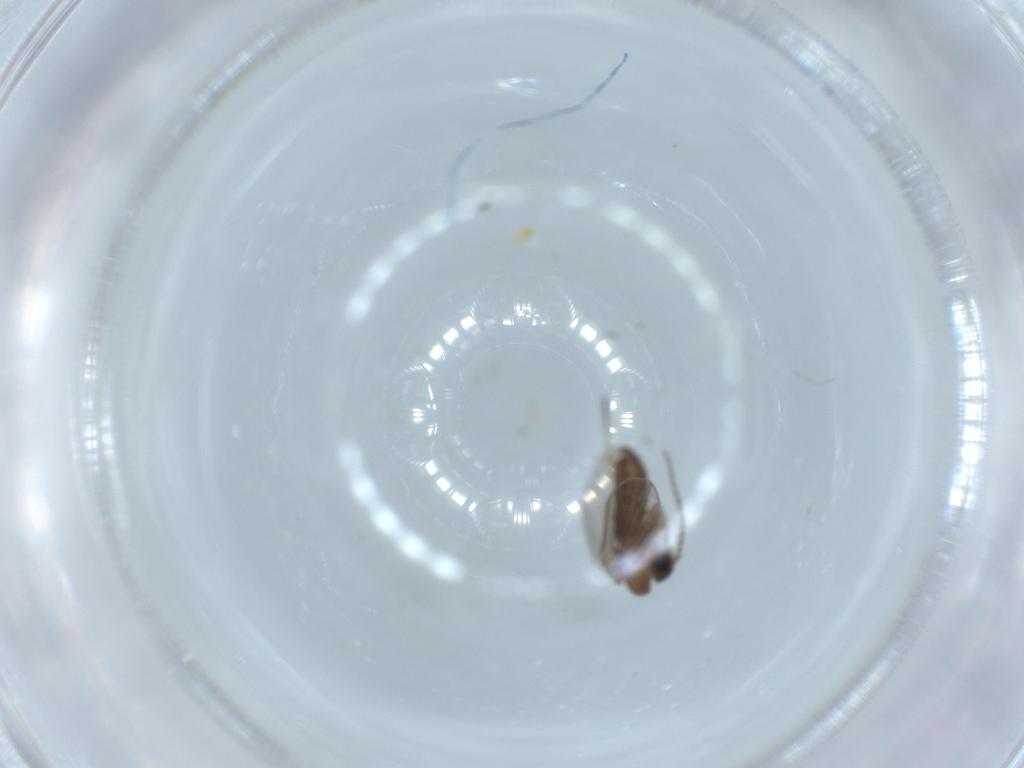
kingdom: Animalia
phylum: Arthropoda
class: Insecta
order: Diptera
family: Psychodidae
